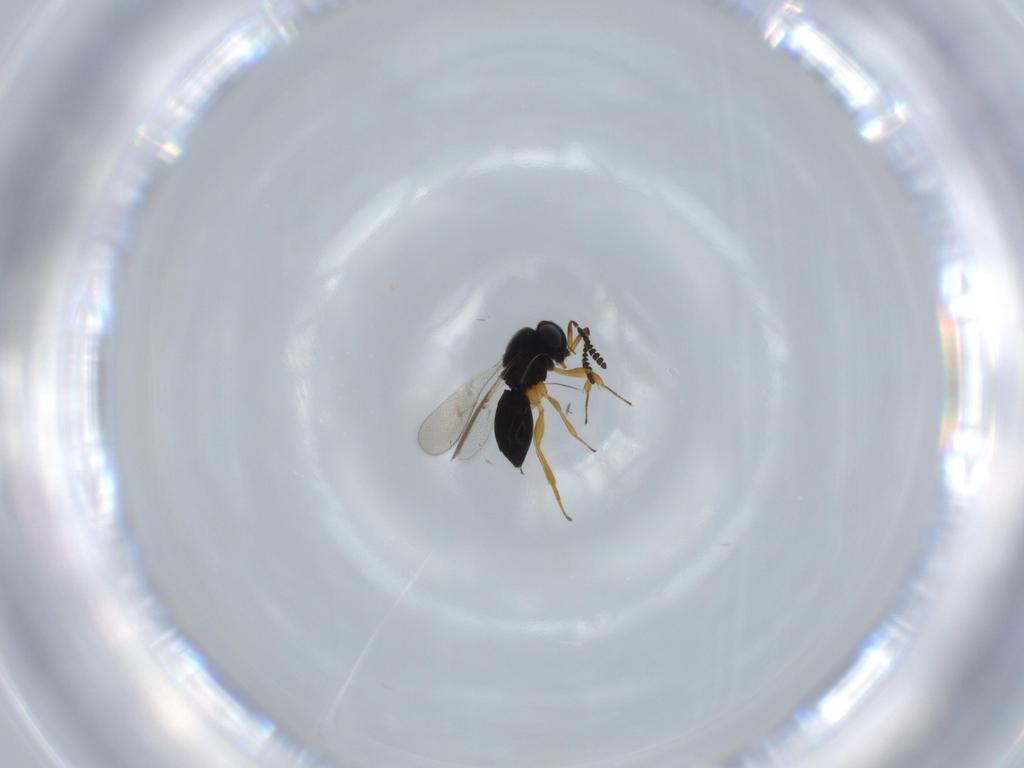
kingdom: Animalia
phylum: Arthropoda
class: Insecta
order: Hymenoptera
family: Scelionidae
